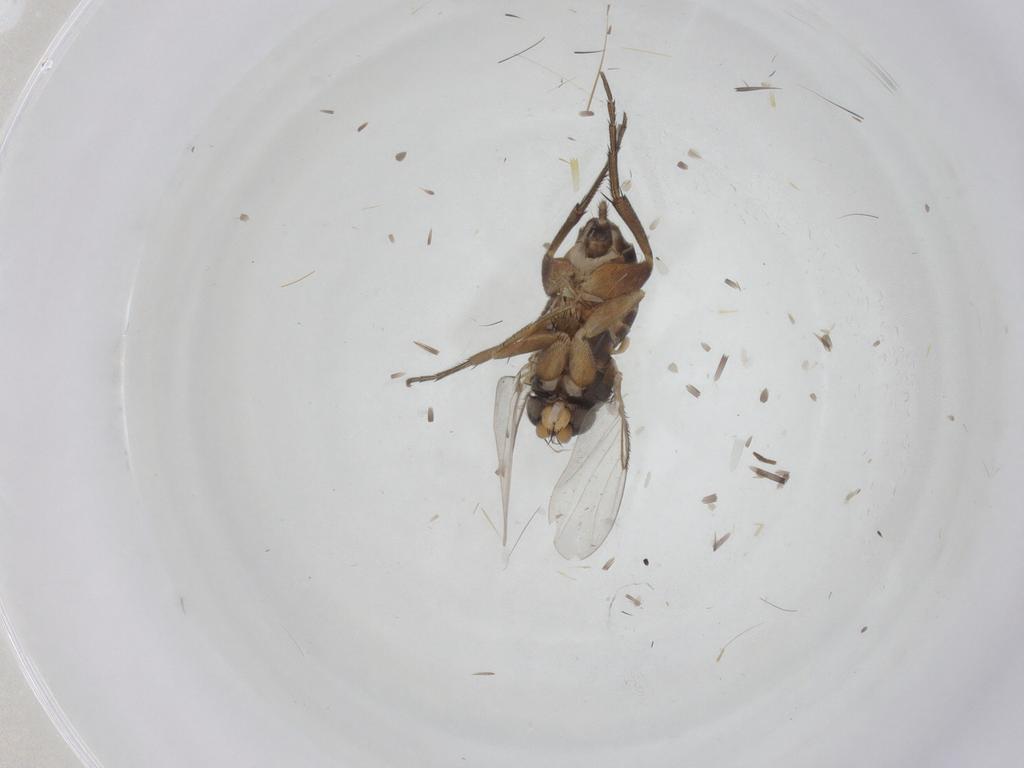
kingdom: Animalia
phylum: Arthropoda
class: Insecta
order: Diptera
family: Phoridae
